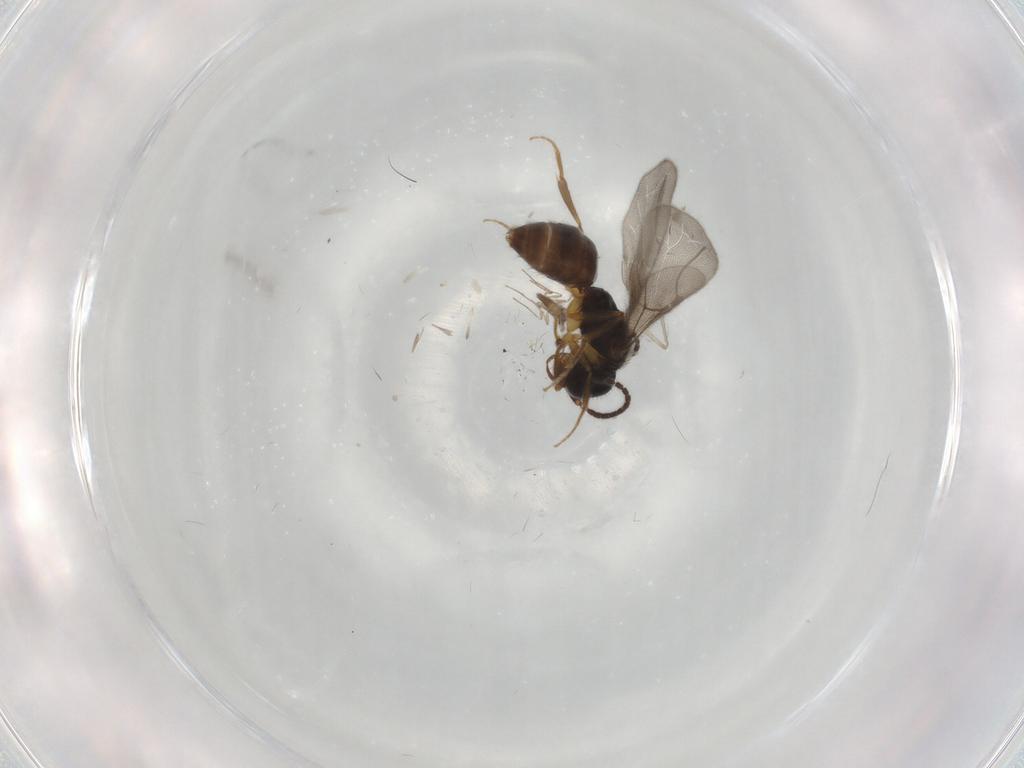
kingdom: Animalia
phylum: Arthropoda
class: Insecta
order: Hymenoptera
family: Bethylidae
